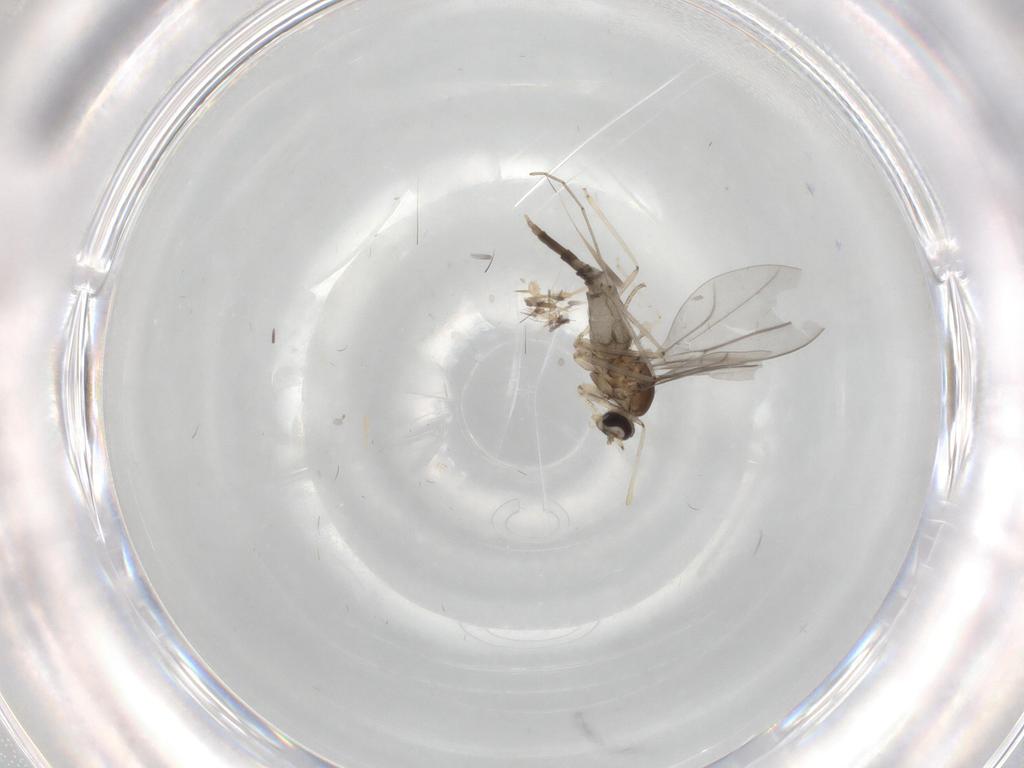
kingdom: Animalia
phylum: Arthropoda
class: Insecta
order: Diptera
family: Cecidomyiidae
